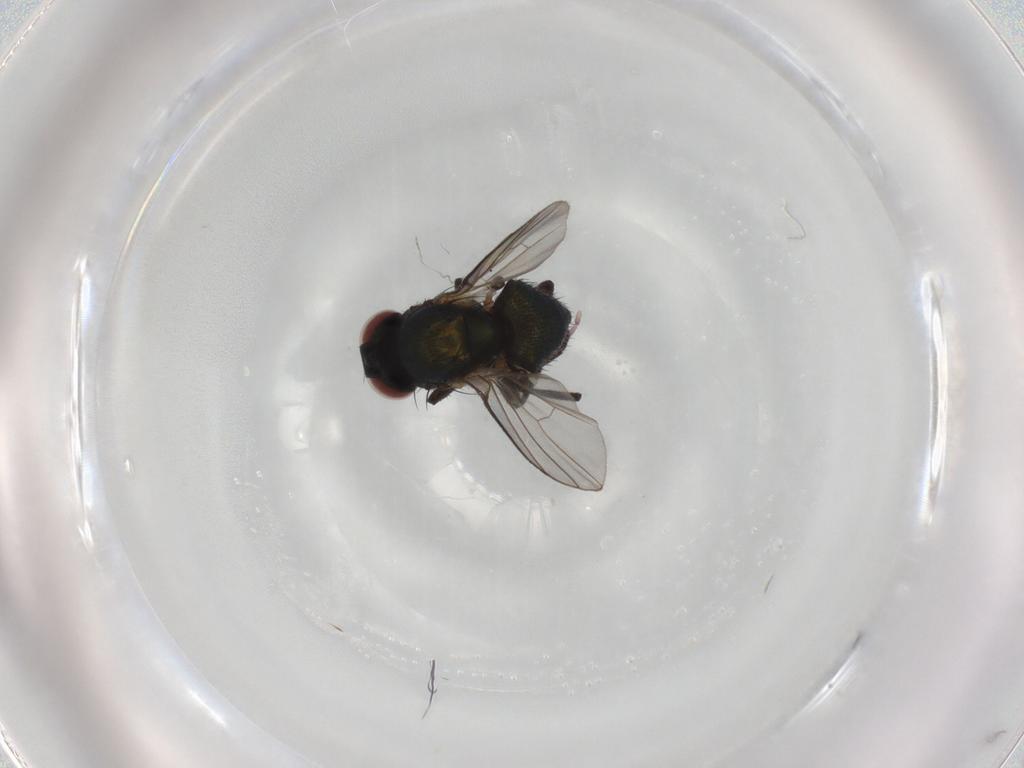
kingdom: Animalia
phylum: Arthropoda
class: Insecta
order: Diptera
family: Agromyzidae
